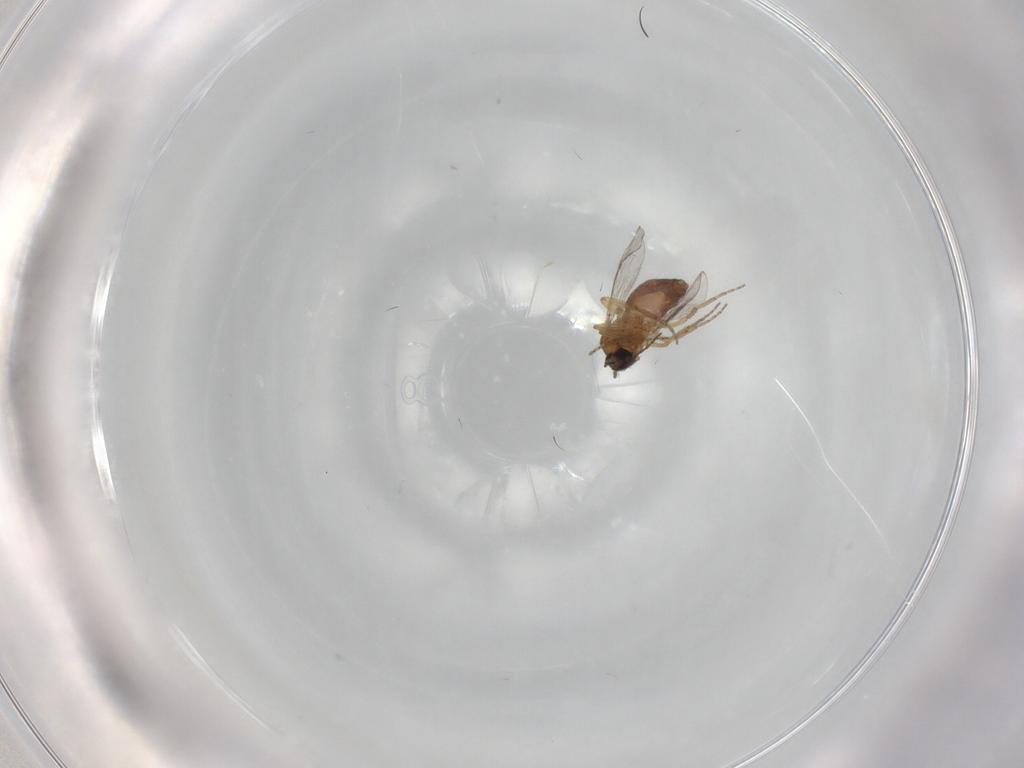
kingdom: Animalia
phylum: Arthropoda
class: Insecta
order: Diptera
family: Ceratopogonidae
